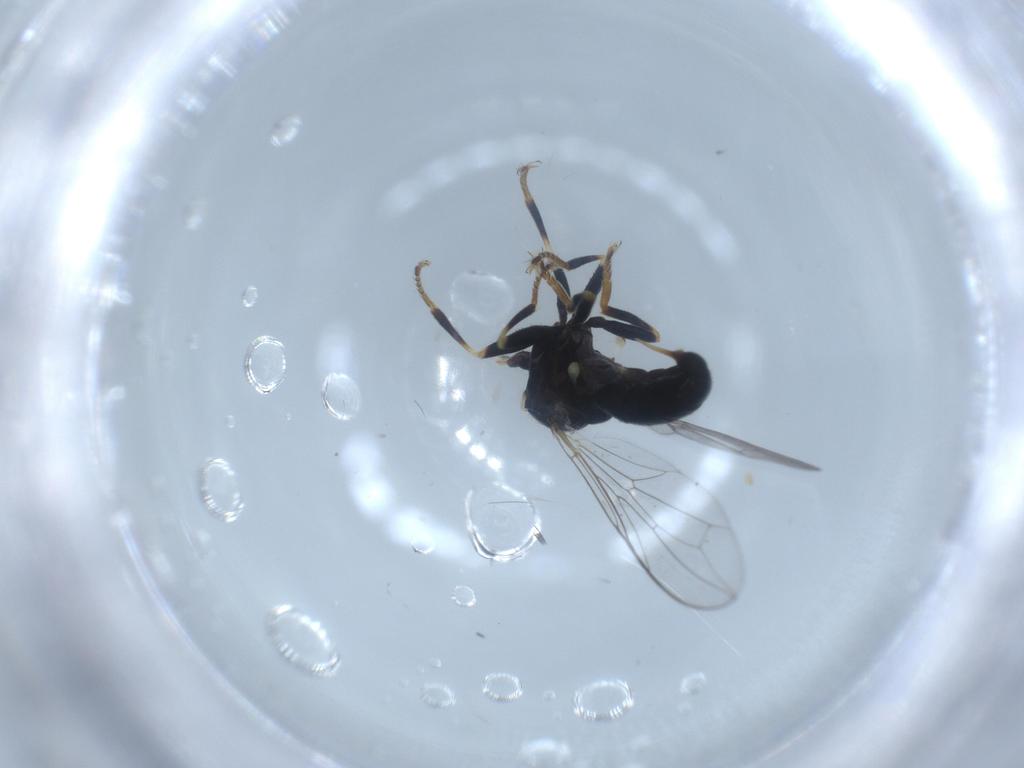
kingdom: Animalia
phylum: Arthropoda
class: Insecta
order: Diptera
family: Pipunculidae
